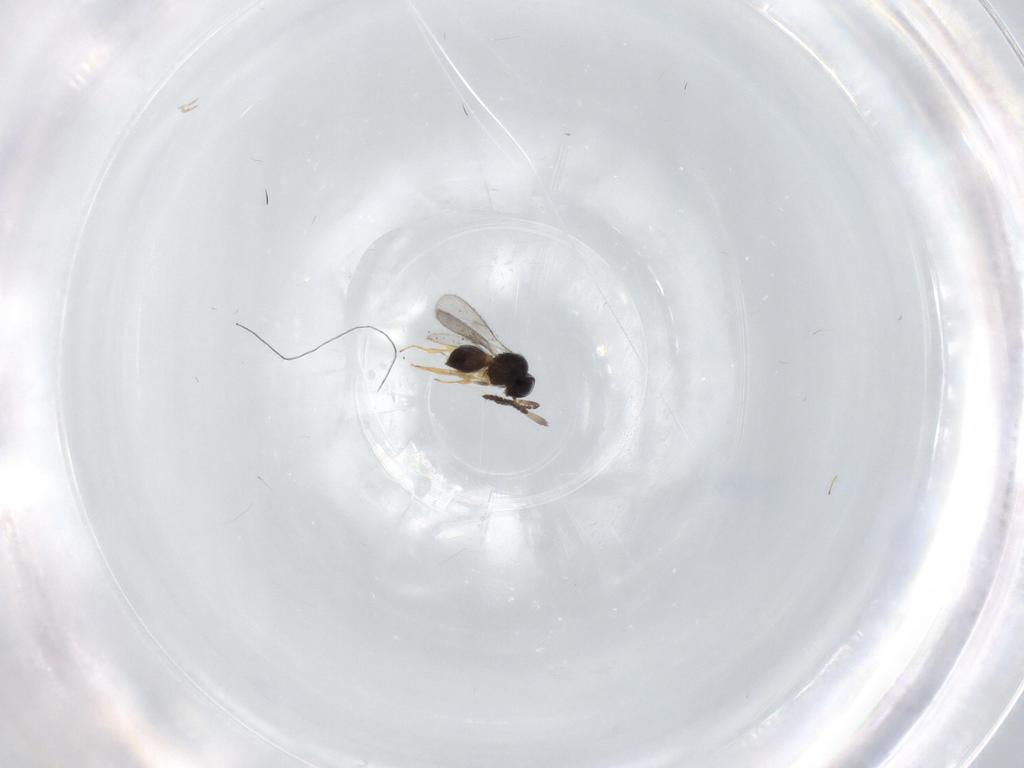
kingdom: Animalia
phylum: Arthropoda
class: Insecta
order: Hymenoptera
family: Scelionidae
